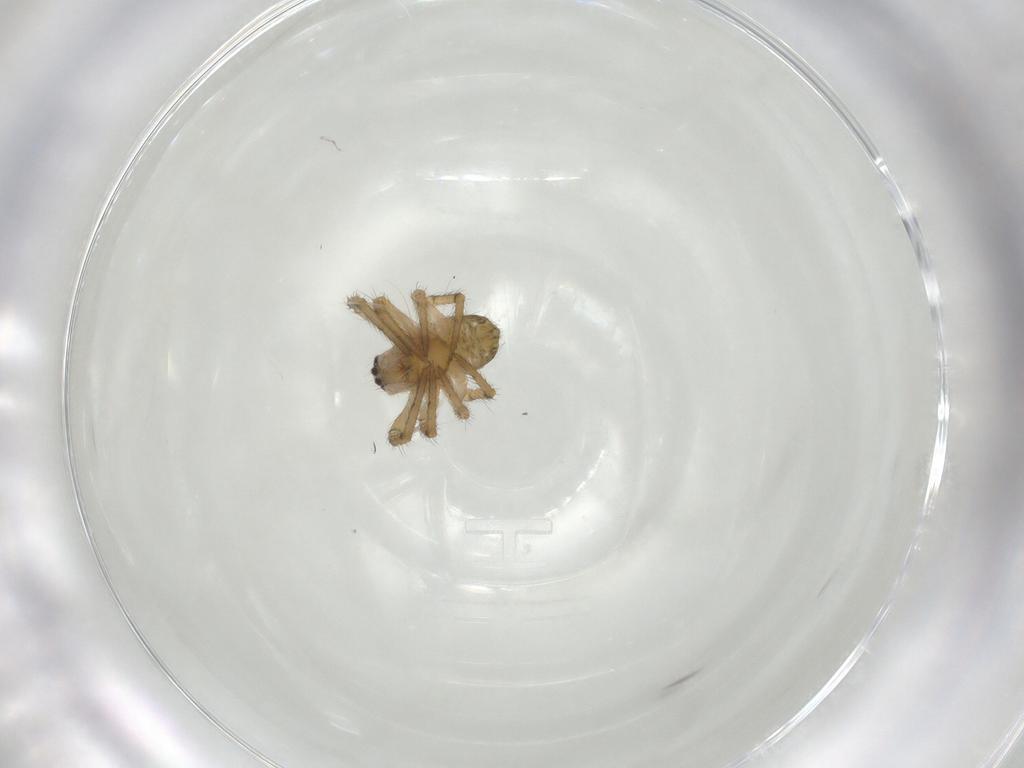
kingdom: Animalia
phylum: Arthropoda
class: Arachnida
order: Araneae
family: Araneidae
